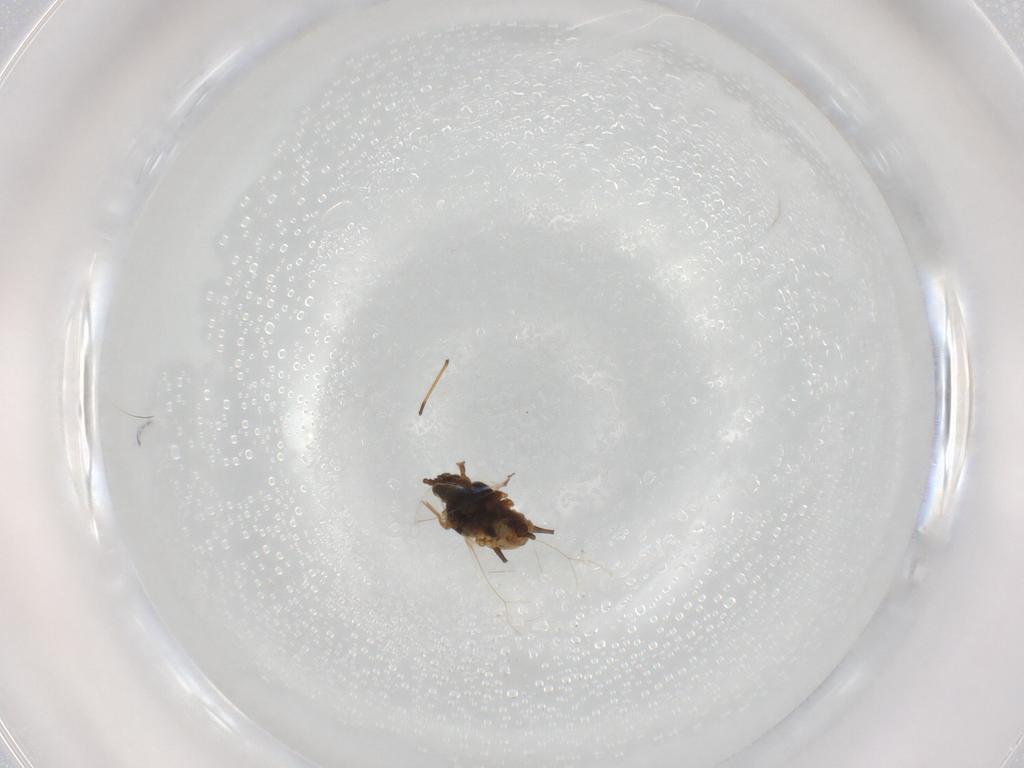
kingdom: Animalia
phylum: Arthropoda
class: Insecta
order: Hemiptera
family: Aphididae
